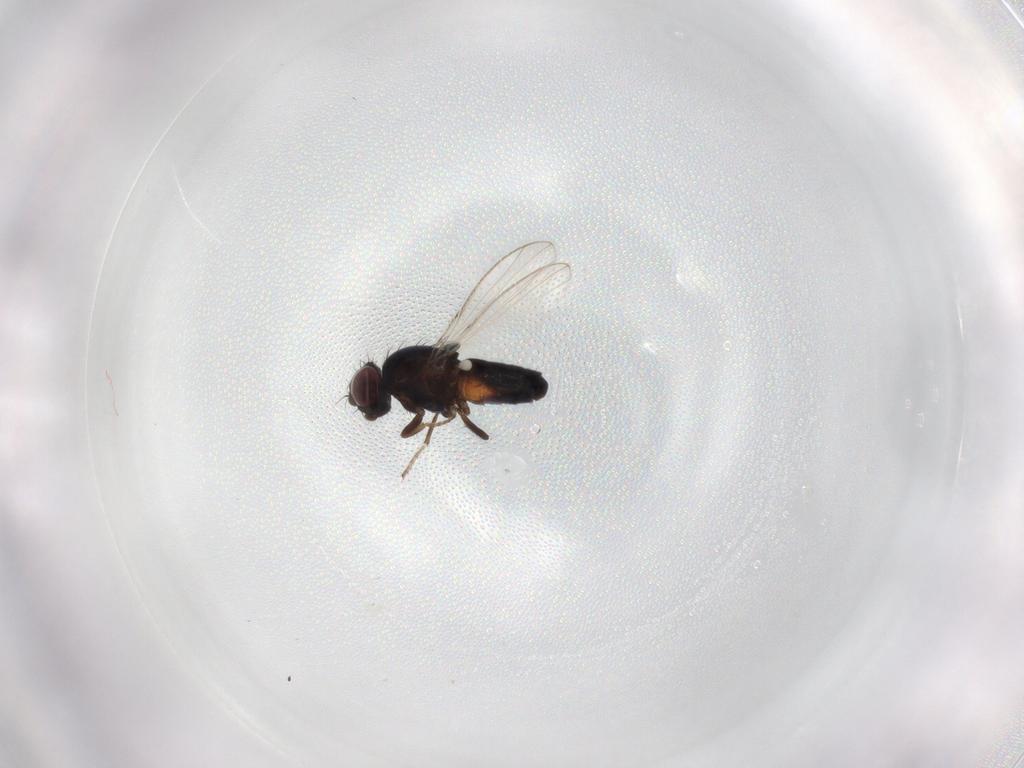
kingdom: Animalia
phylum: Arthropoda
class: Insecta
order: Diptera
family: Carnidae
